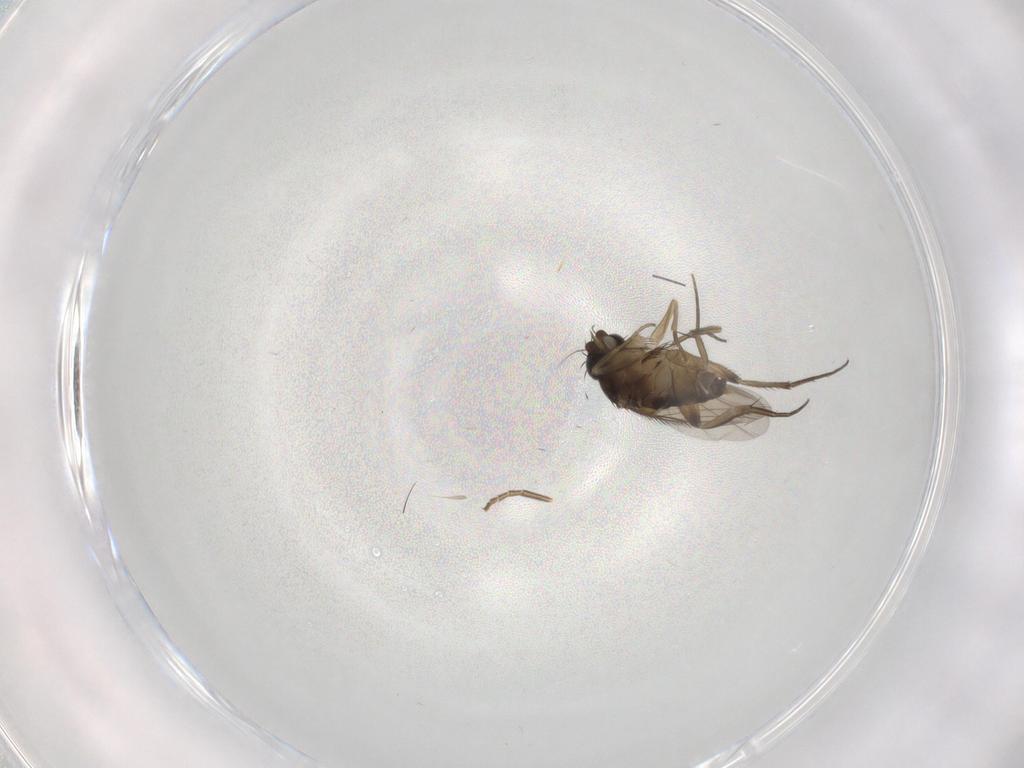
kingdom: Animalia
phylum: Arthropoda
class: Insecta
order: Diptera
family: Phoridae
